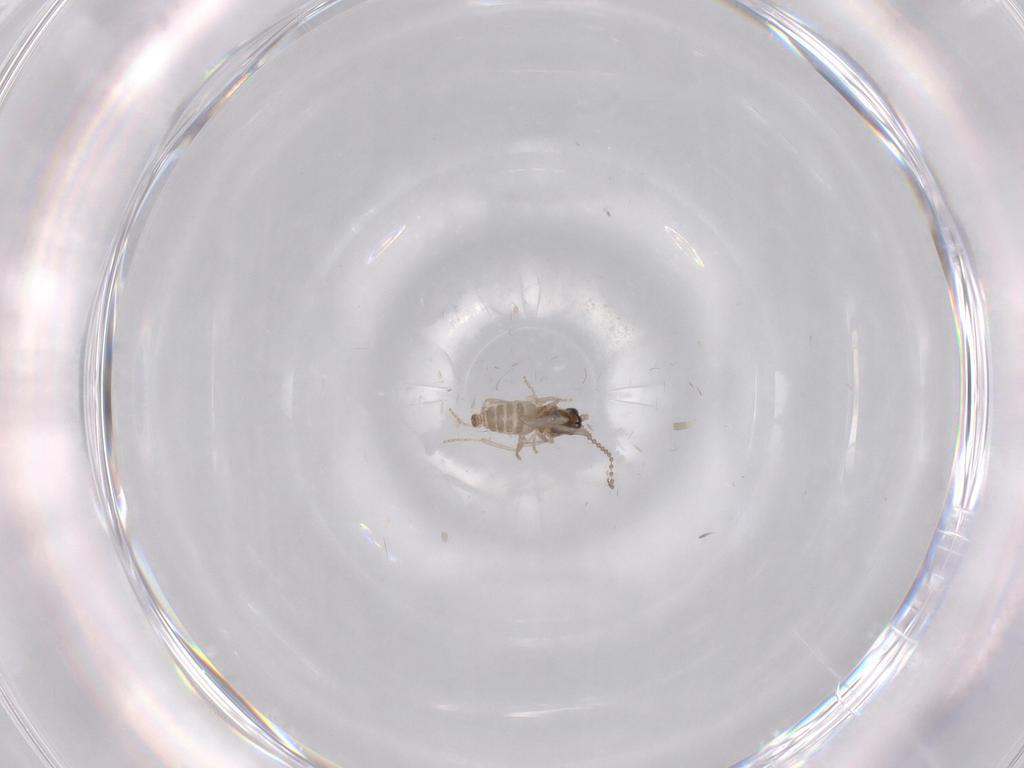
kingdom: Animalia
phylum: Arthropoda
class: Insecta
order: Diptera
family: Cecidomyiidae
